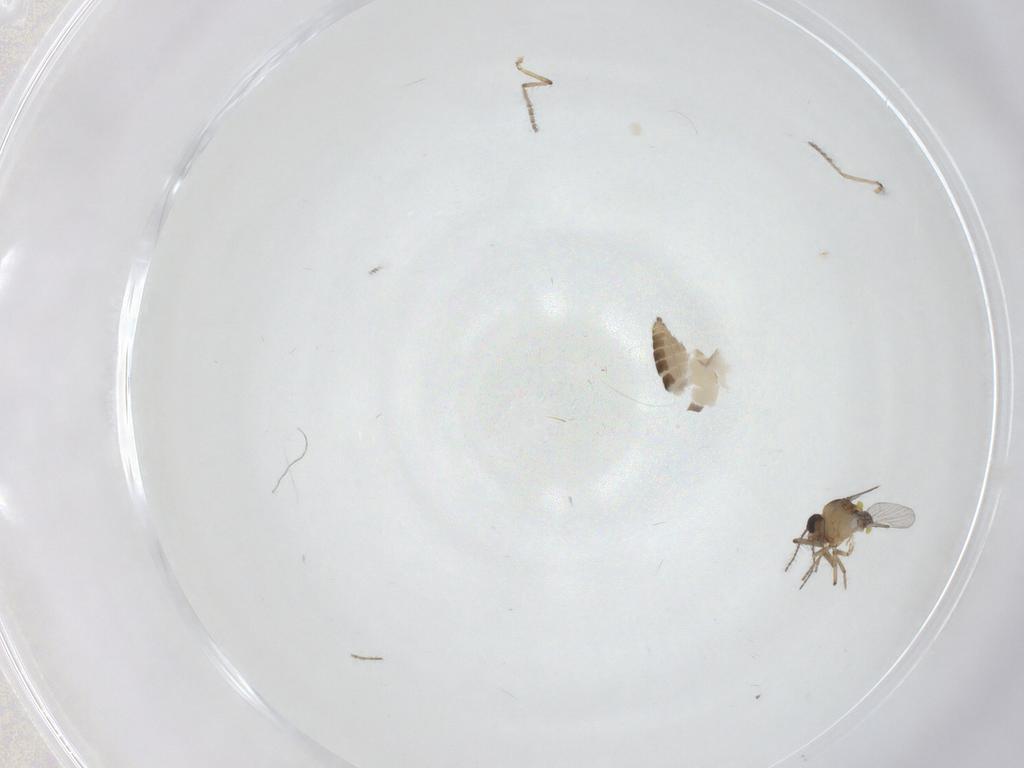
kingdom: Animalia
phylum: Arthropoda
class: Insecta
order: Diptera
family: Ceratopogonidae
